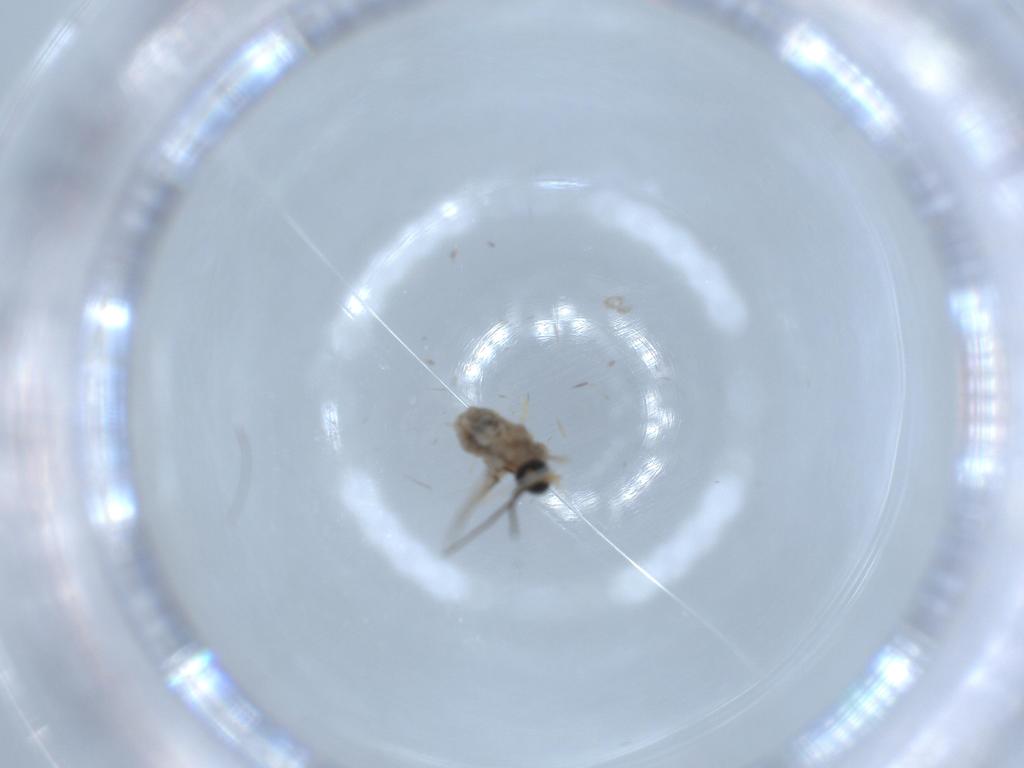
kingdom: Animalia
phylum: Arthropoda
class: Insecta
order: Diptera
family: Cecidomyiidae
